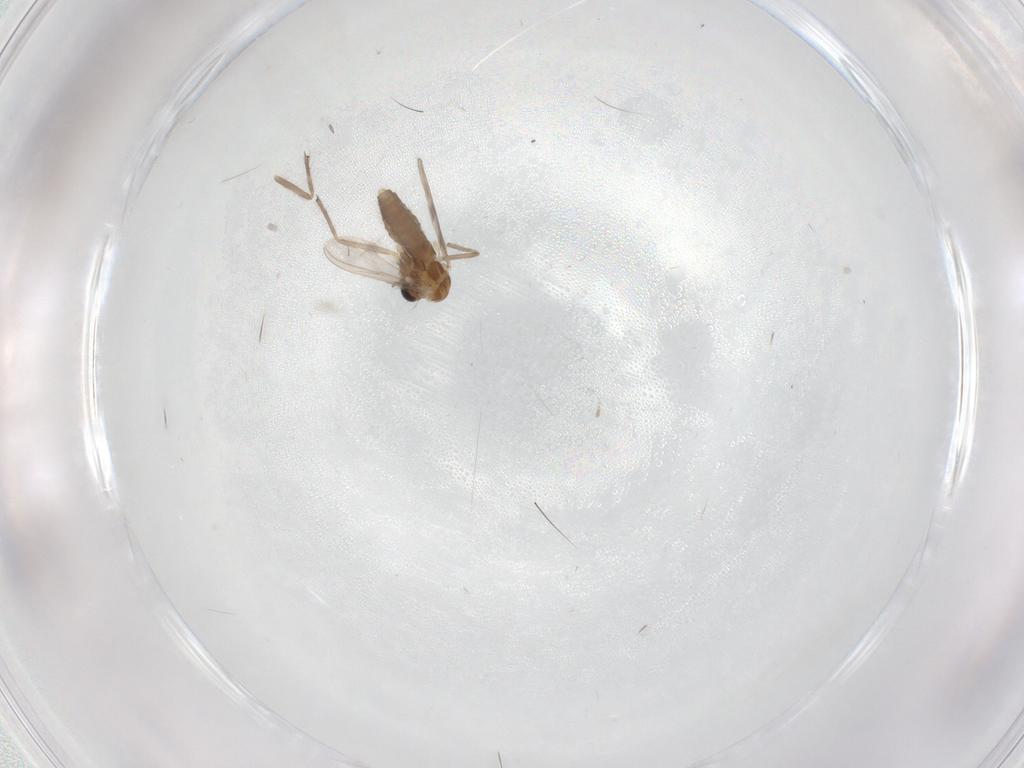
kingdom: Animalia
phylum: Arthropoda
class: Insecta
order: Diptera
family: Chironomidae
